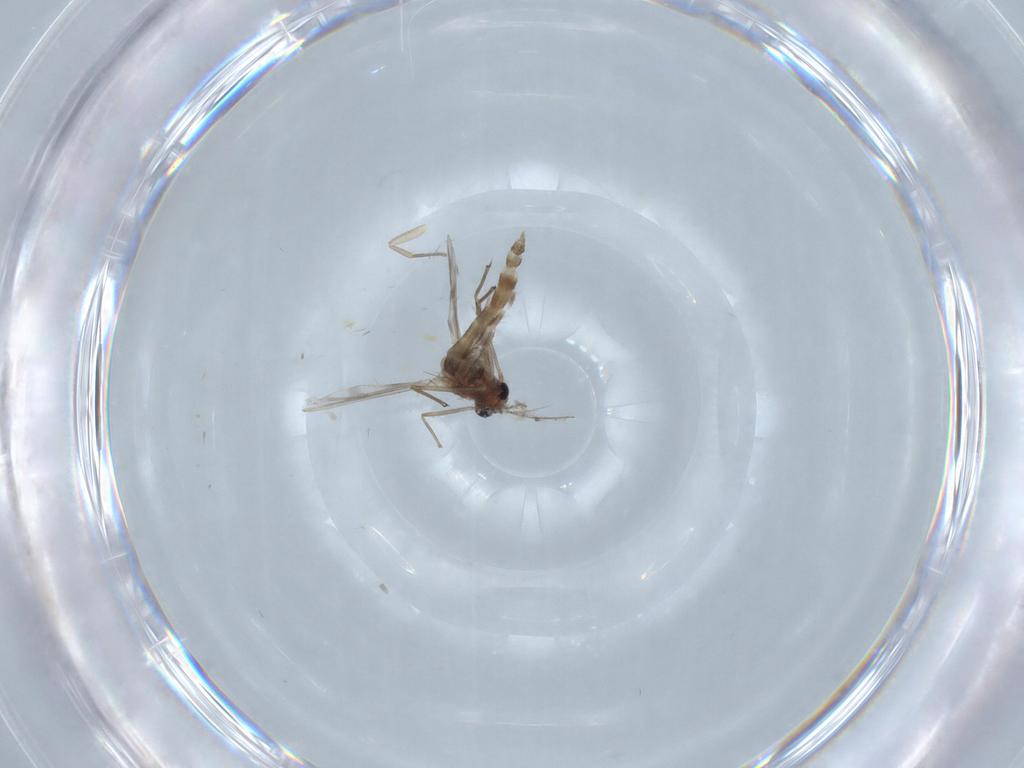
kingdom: Animalia
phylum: Arthropoda
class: Insecta
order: Diptera
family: Chironomidae
